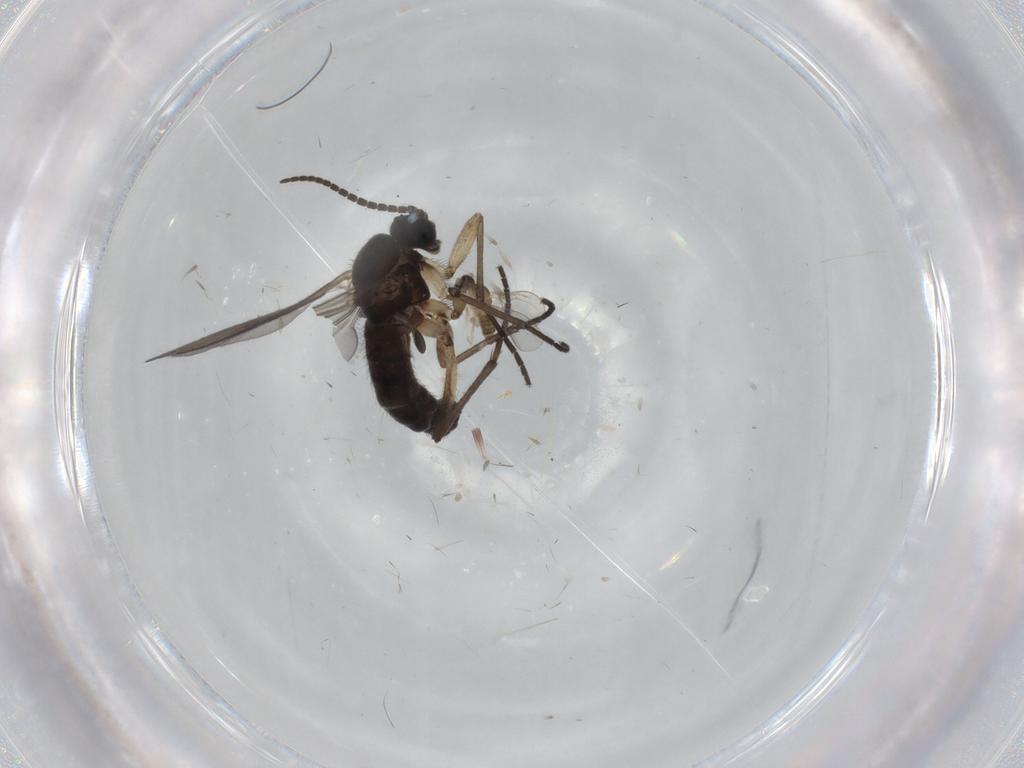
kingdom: Animalia
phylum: Arthropoda
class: Insecta
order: Diptera
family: Sciaridae
